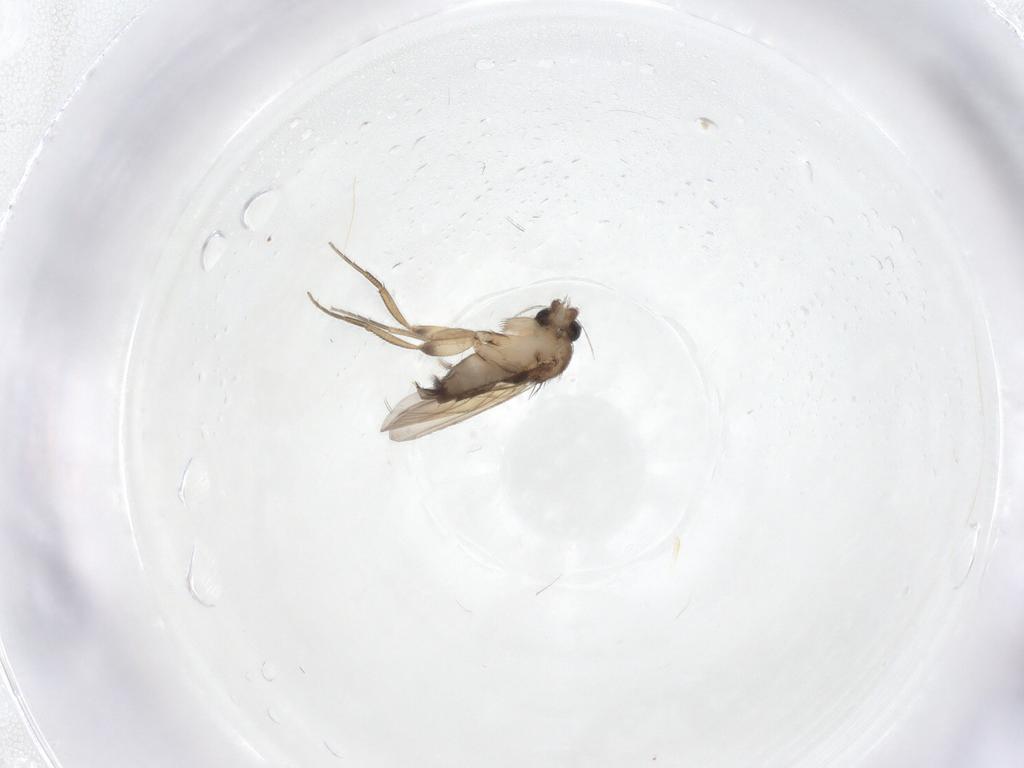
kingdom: Animalia
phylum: Arthropoda
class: Insecta
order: Diptera
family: Phoridae
